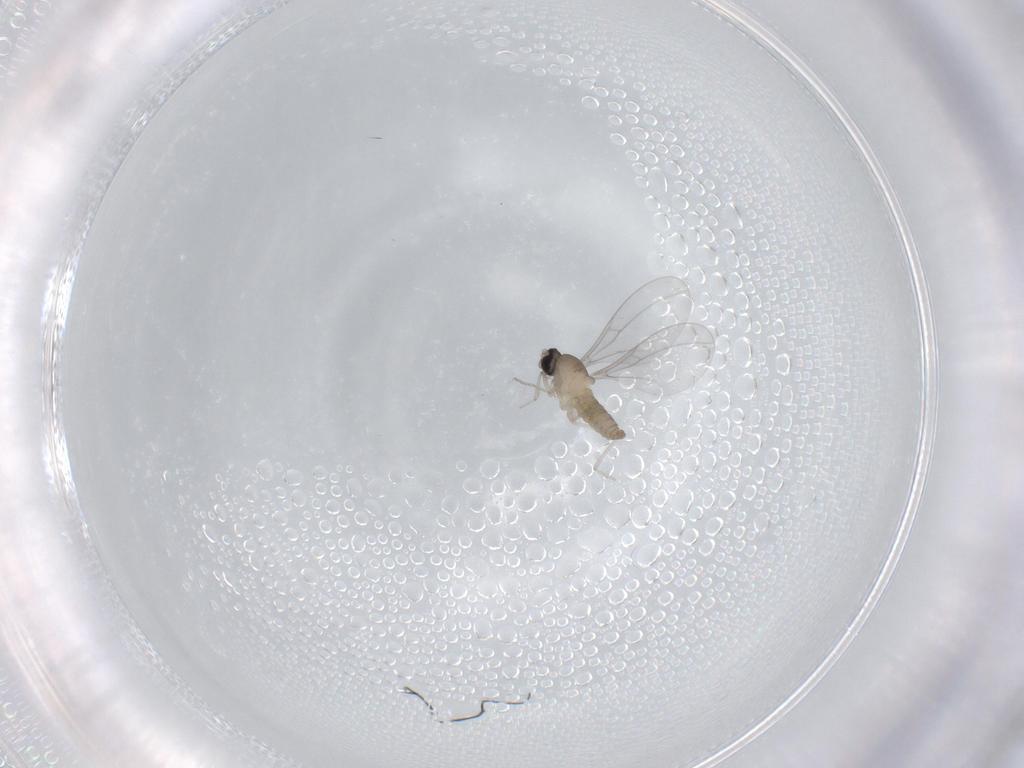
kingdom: Animalia
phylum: Arthropoda
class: Insecta
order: Diptera
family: Cecidomyiidae
